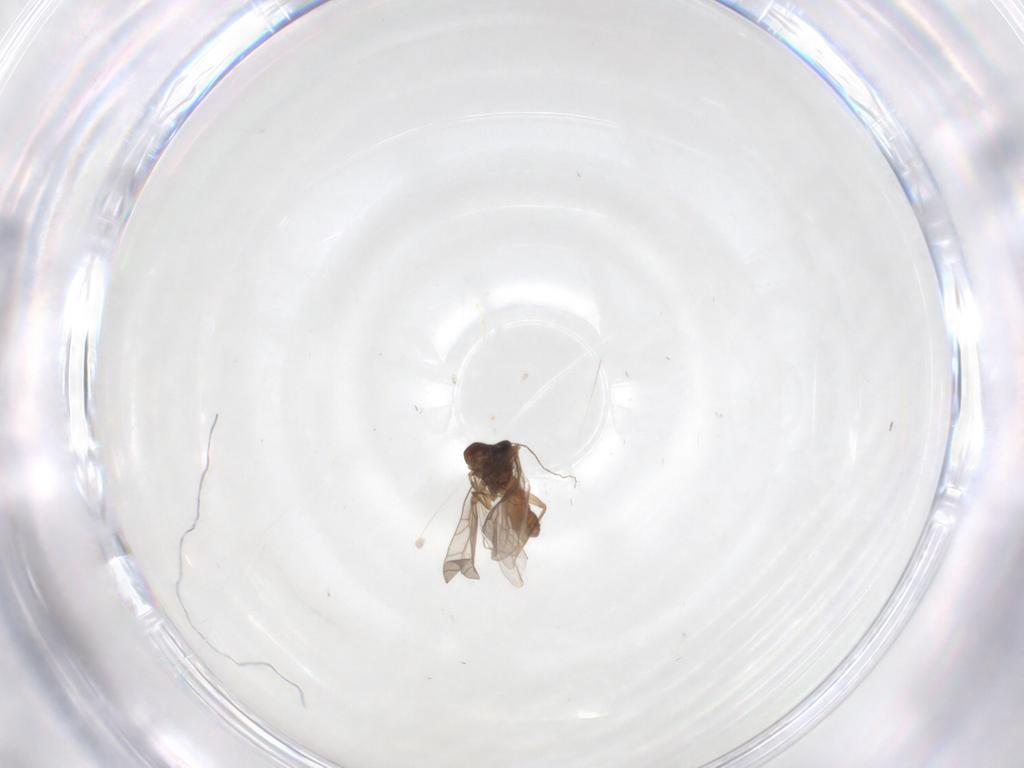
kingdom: Animalia
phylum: Arthropoda
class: Insecta
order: Psocodea
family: Lepidopsocidae
